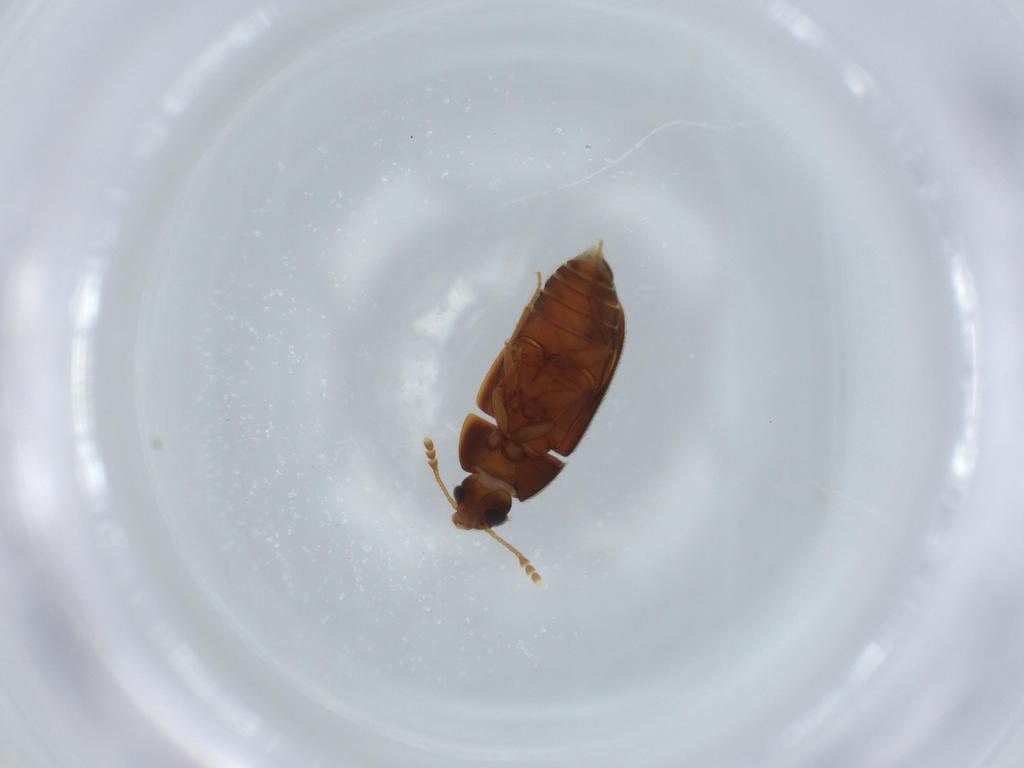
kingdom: Animalia
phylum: Arthropoda
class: Insecta
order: Coleoptera
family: Mycetophagidae
